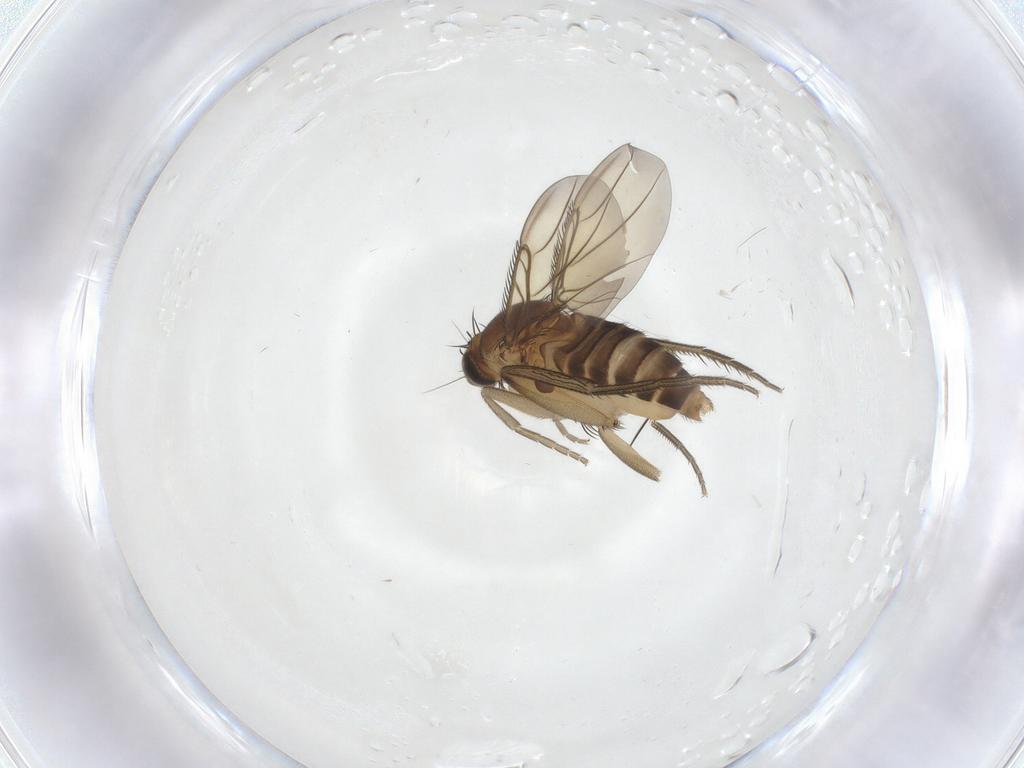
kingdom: Animalia
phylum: Arthropoda
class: Insecta
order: Diptera
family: Phoridae
